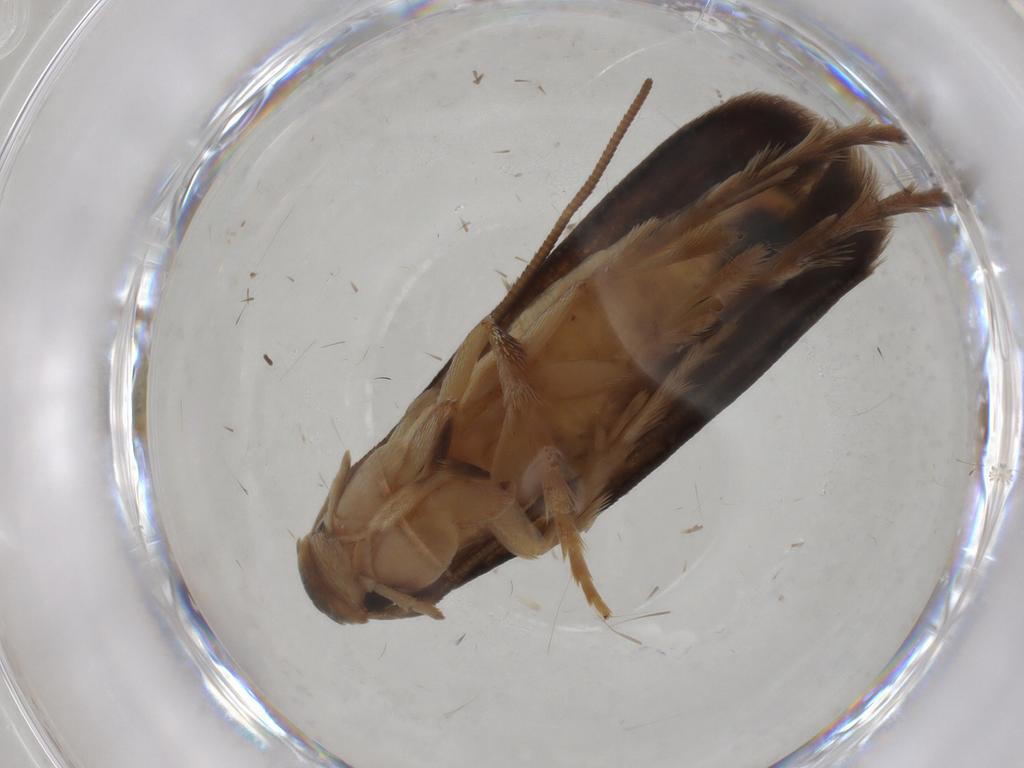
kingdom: Animalia
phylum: Arthropoda
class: Insecta
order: Lepidoptera
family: Tineidae
